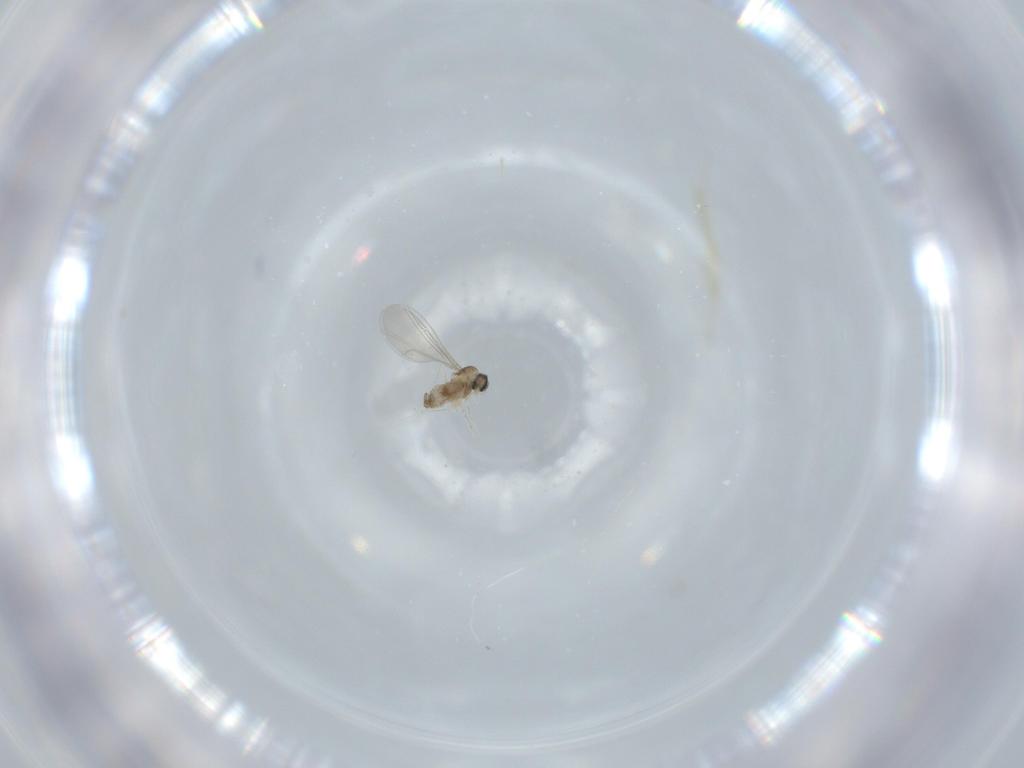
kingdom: Animalia
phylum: Arthropoda
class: Insecta
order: Diptera
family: Cecidomyiidae
